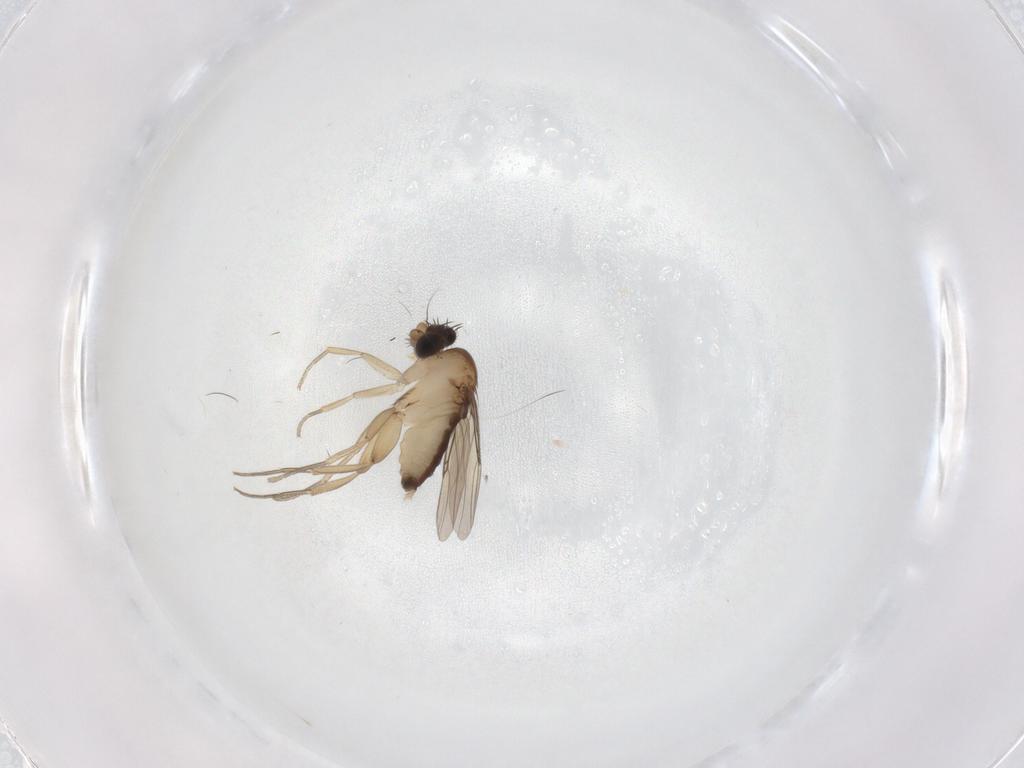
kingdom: Animalia
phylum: Arthropoda
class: Insecta
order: Diptera
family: Phoridae
